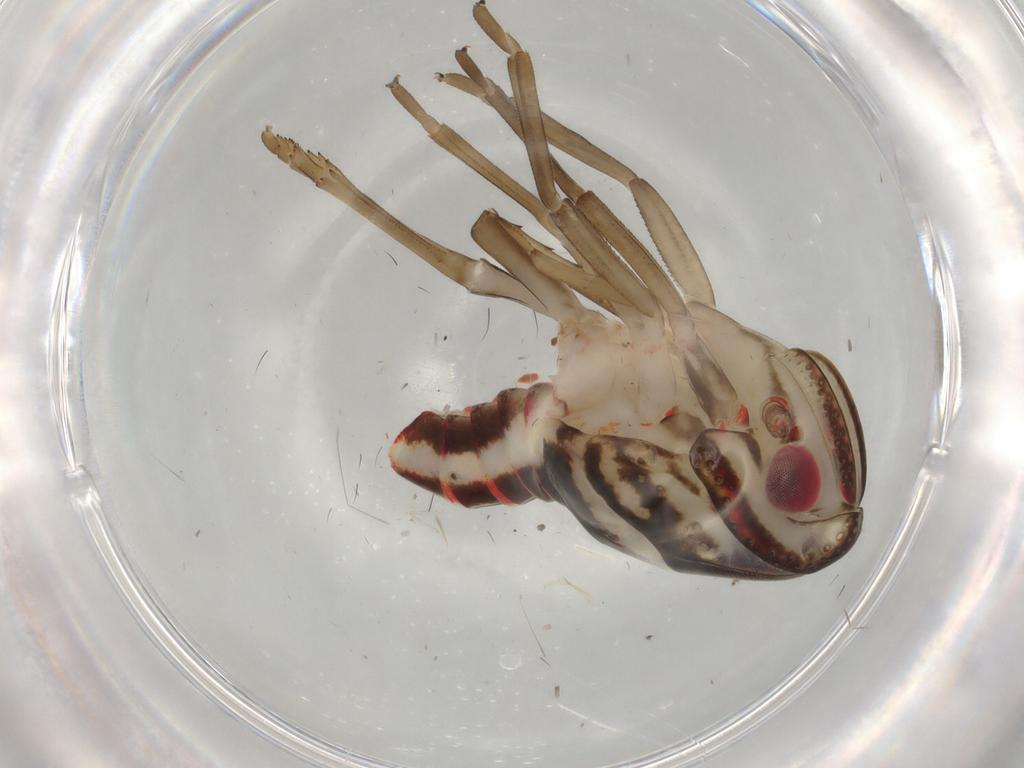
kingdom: Animalia
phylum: Arthropoda
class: Insecta
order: Hemiptera
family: Nogodinidae
